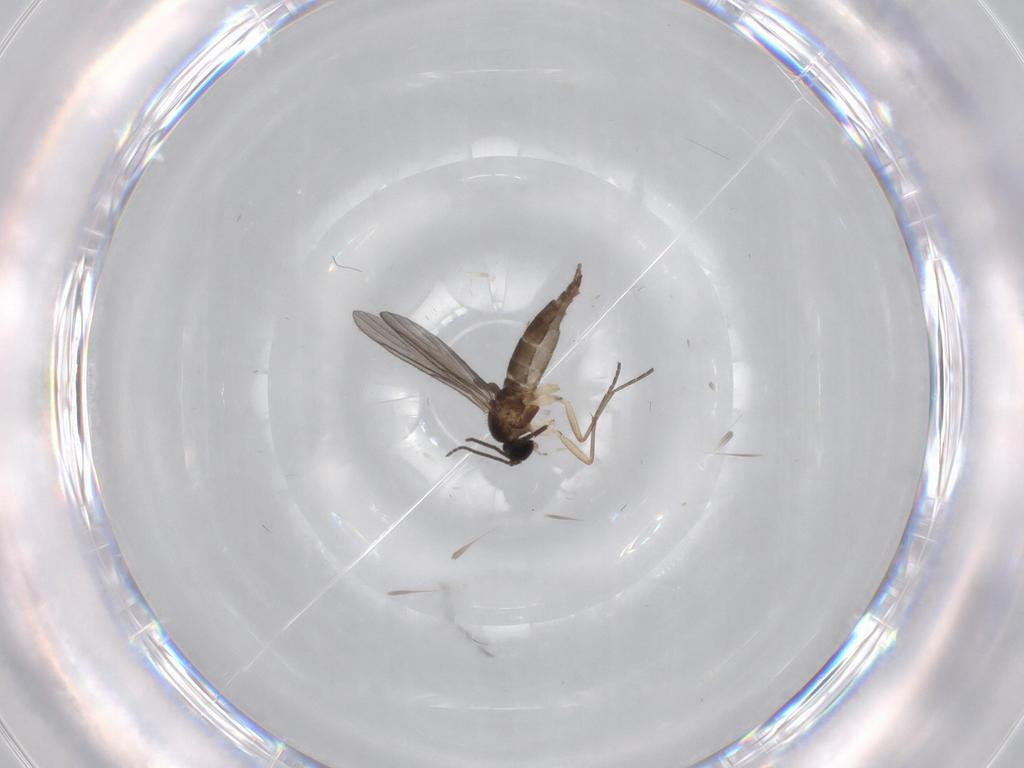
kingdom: Animalia
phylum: Arthropoda
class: Insecta
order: Diptera
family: Sciaridae
